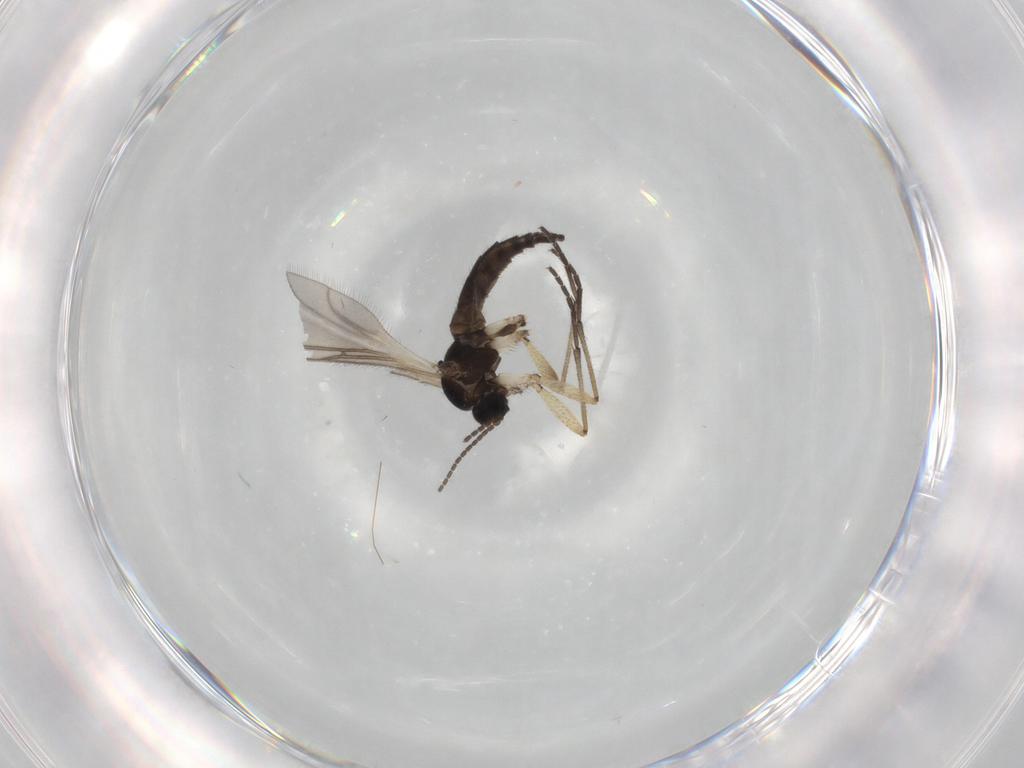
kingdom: Animalia
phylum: Arthropoda
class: Insecta
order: Diptera
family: Sciaridae
